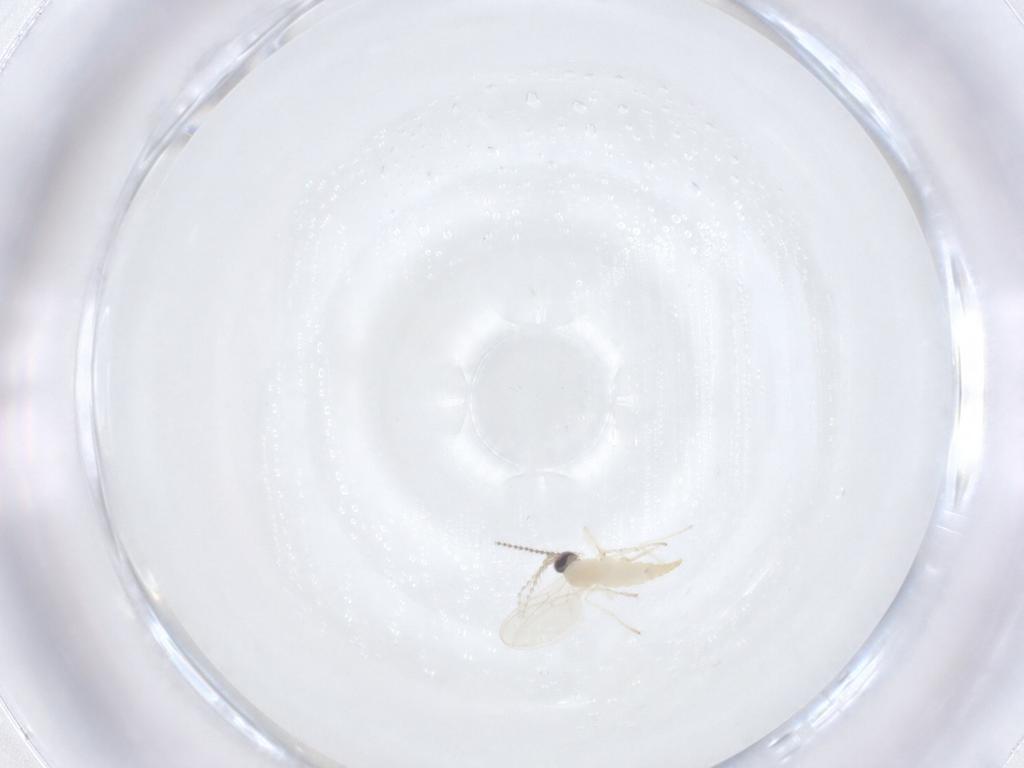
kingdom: Animalia
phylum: Arthropoda
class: Insecta
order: Diptera
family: Cecidomyiidae
